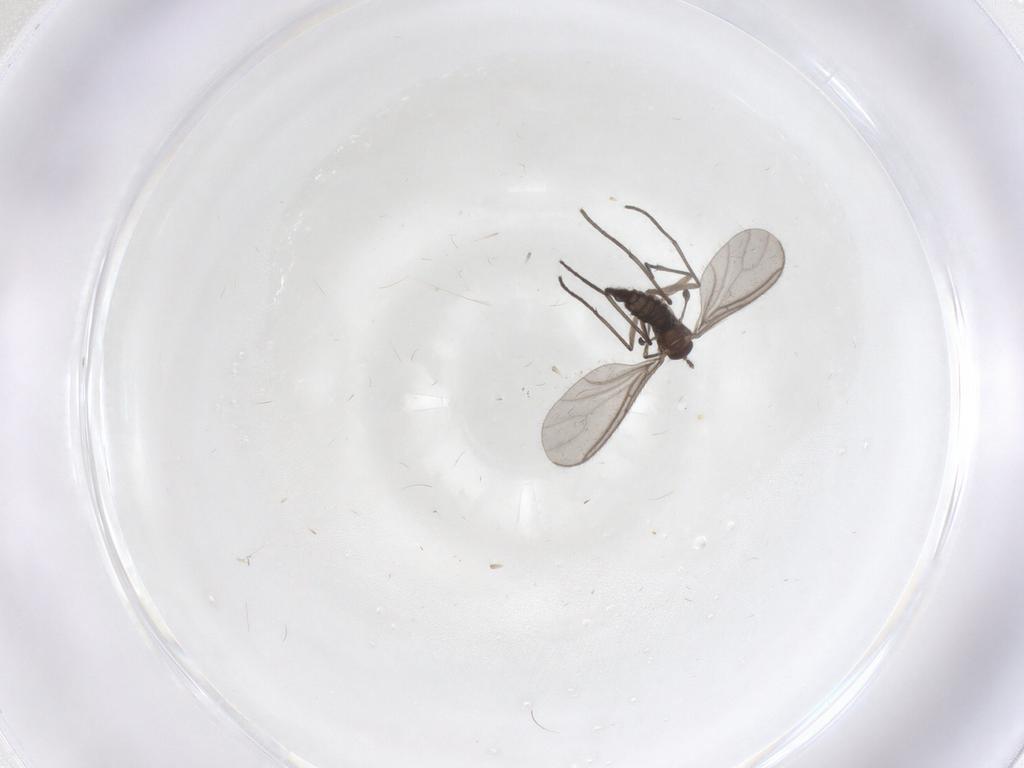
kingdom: Animalia
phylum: Arthropoda
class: Insecta
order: Diptera
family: Sciaridae
